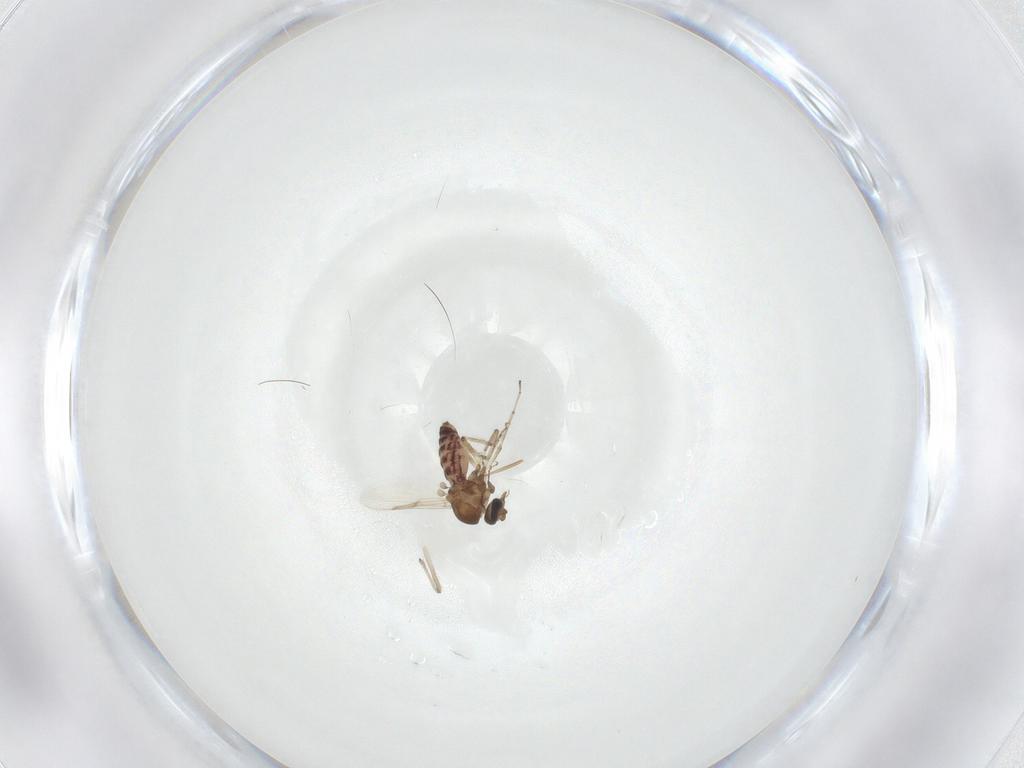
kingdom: Animalia
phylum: Arthropoda
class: Insecta
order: Diptera
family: Ceratopogonidae
